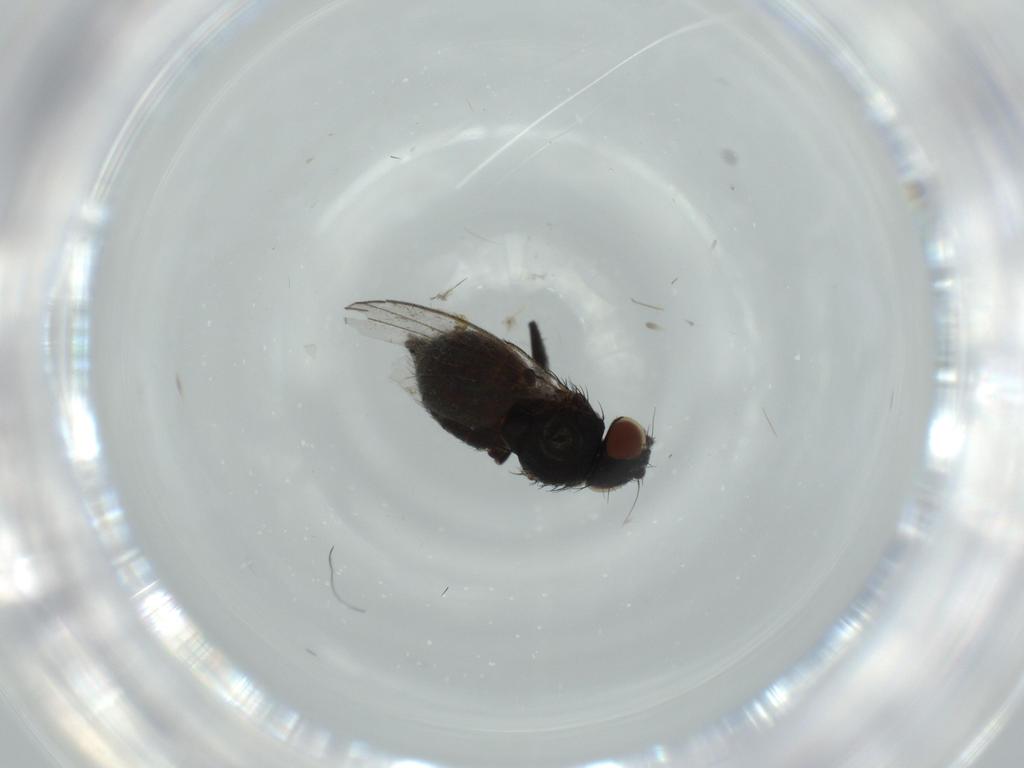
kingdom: Animalia
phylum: Arthropoda
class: Insecta
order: Diptera
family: Milichiidae
